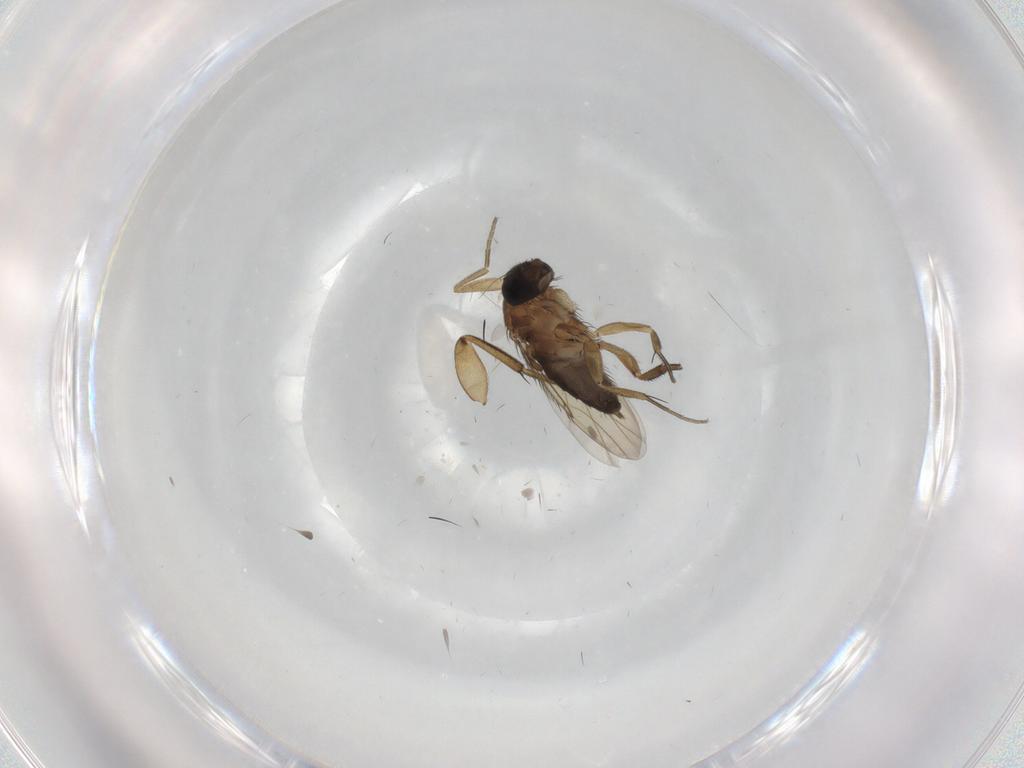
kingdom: Animalia
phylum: Arthropoda
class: Insecta
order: Diptera
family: Phoridae
